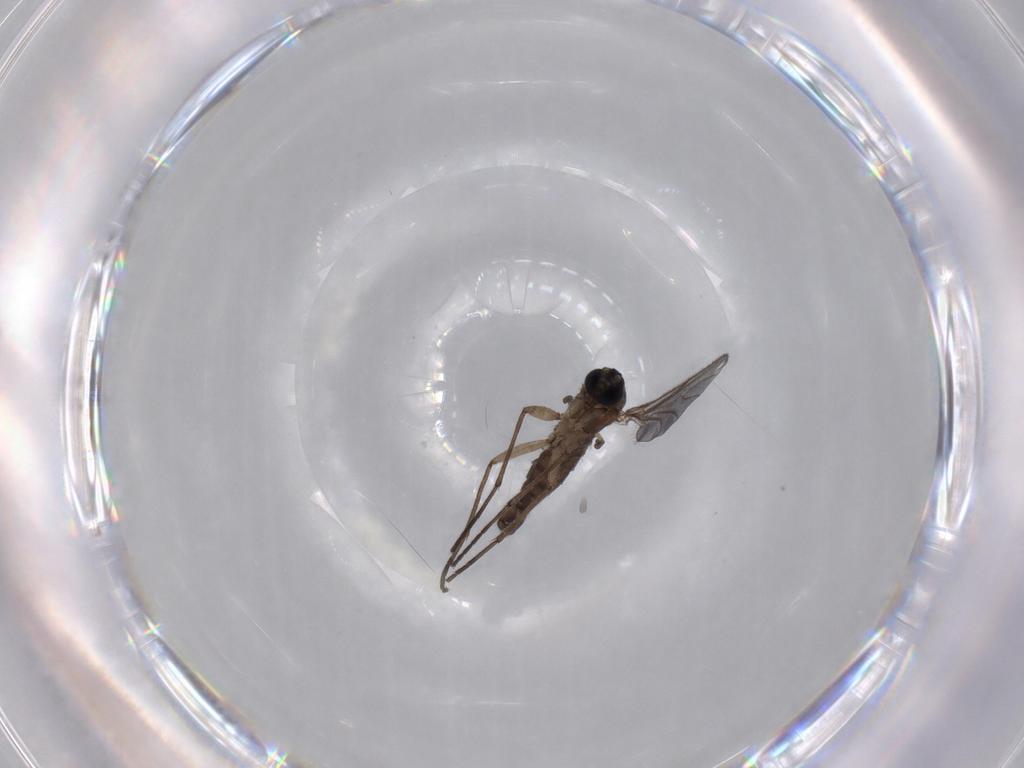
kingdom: Animalia
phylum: Arthropoda
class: Insecta
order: Diptera
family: Sciaridae
